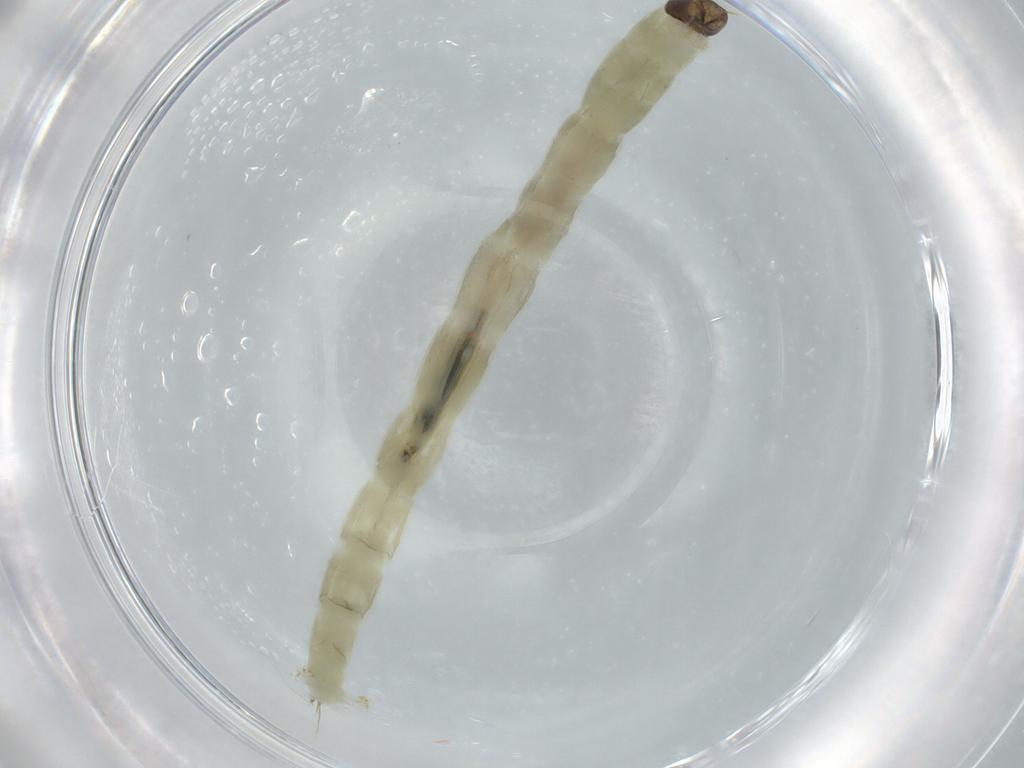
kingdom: Animalia
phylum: Arthropoda
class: Insecta
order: Diptera
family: Chironomidae
